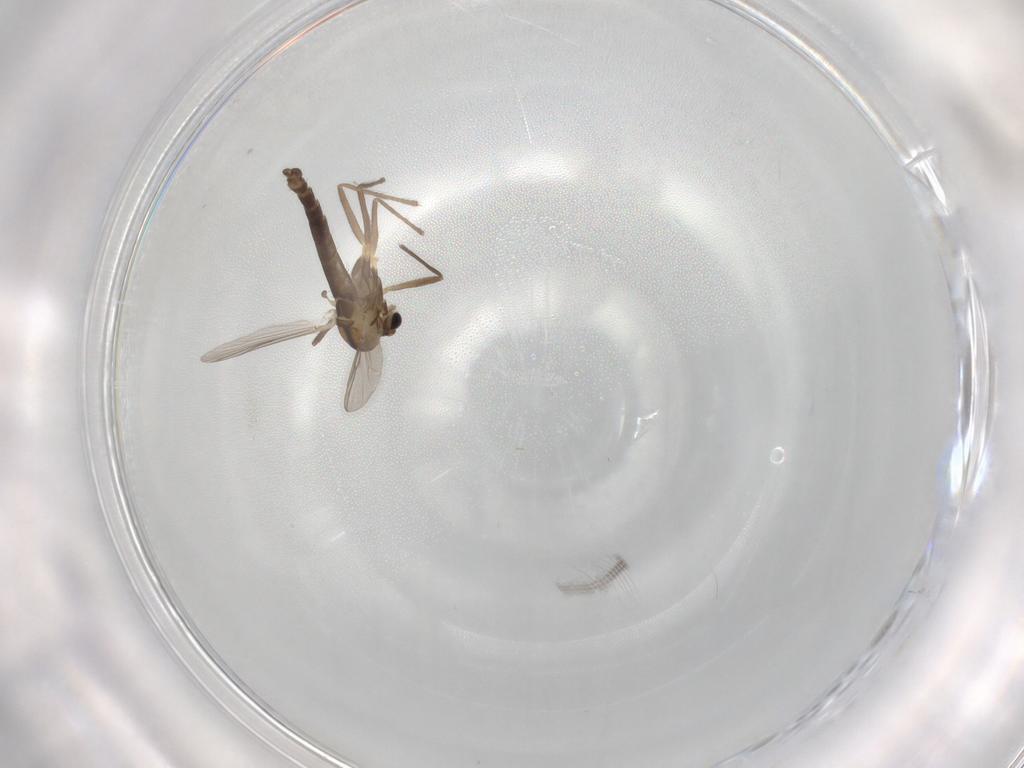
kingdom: Animalia
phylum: Arthropoda
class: Insecta
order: Diptera
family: Chironomidae
